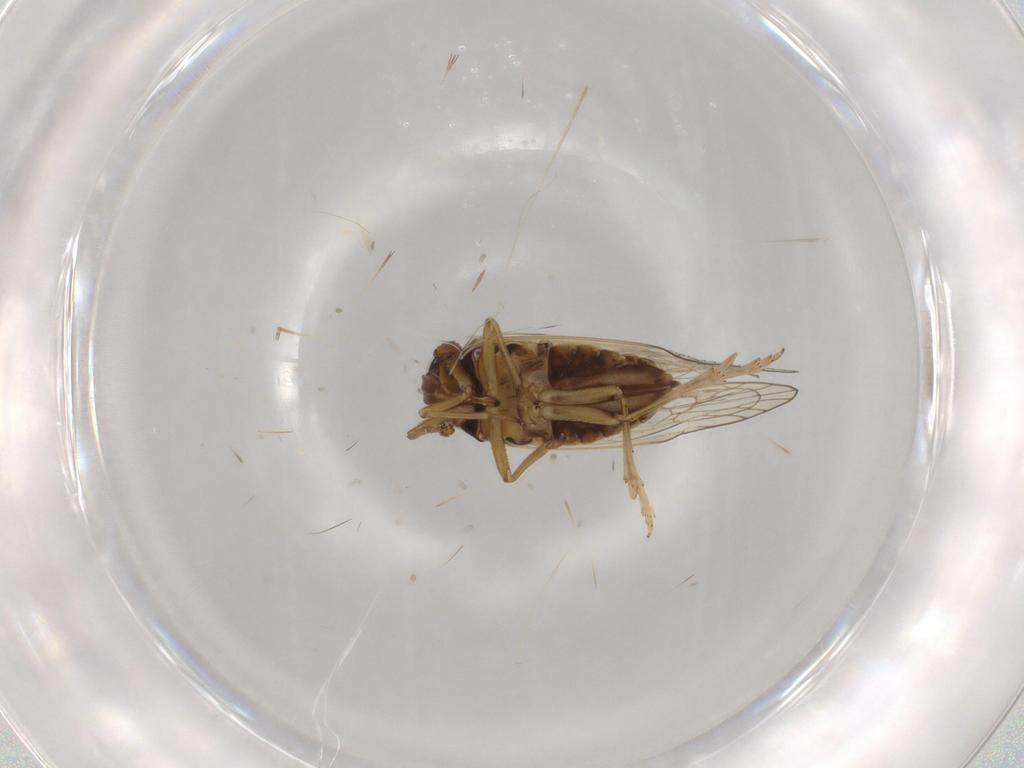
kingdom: Animalia
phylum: Arthropoda
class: Insecta
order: Hemiptera
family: Delphacidae
